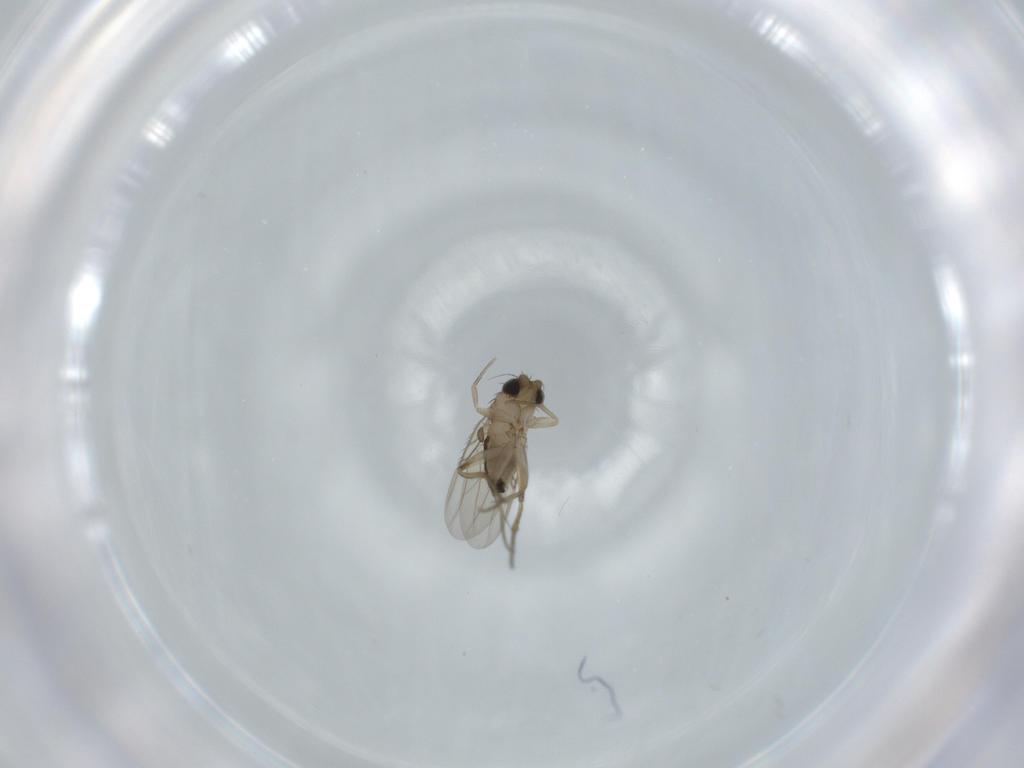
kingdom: Animalia
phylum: Arthropoda
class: Insecta
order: Diptera
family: Phoridae
